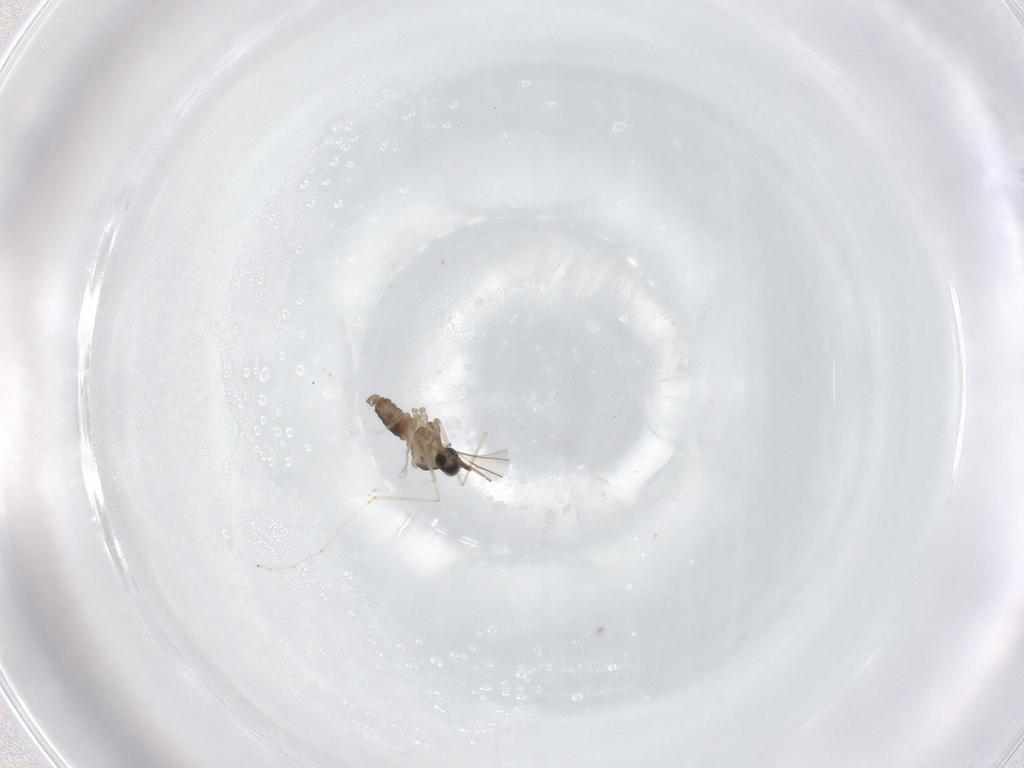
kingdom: Animalia
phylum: Arthropoda
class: Insecta
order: Diptera
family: Cecidomyiidae
